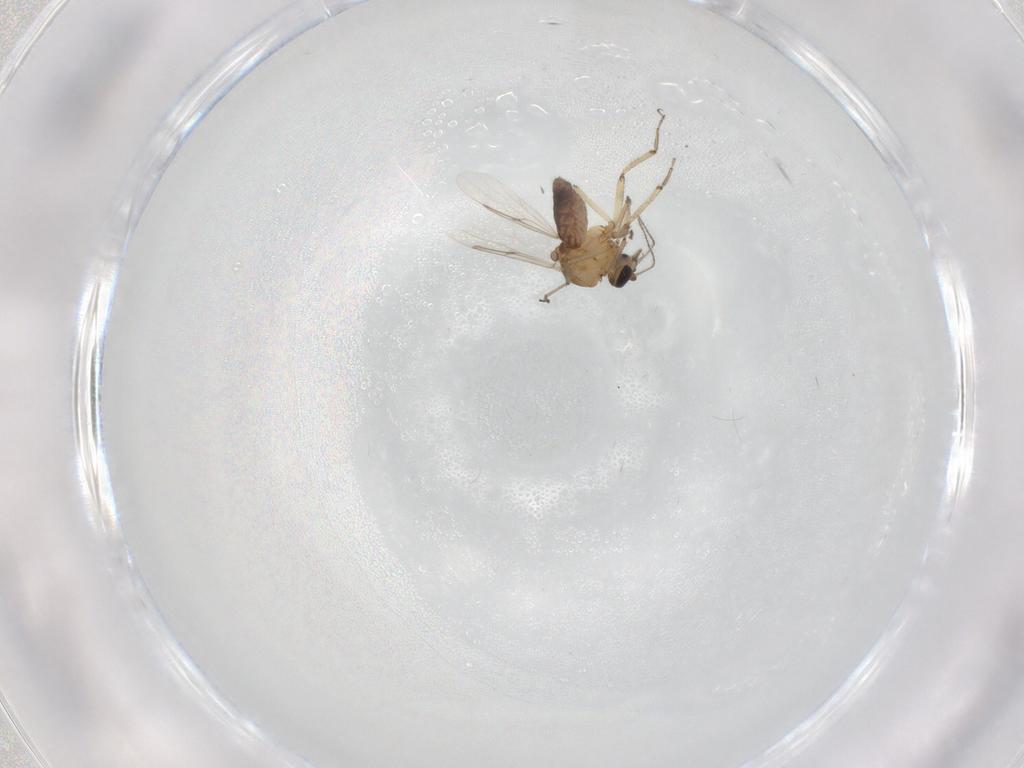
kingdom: Animalia
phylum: Arthropoda
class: Insecta
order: Diptera
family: Ceratopogonidae
